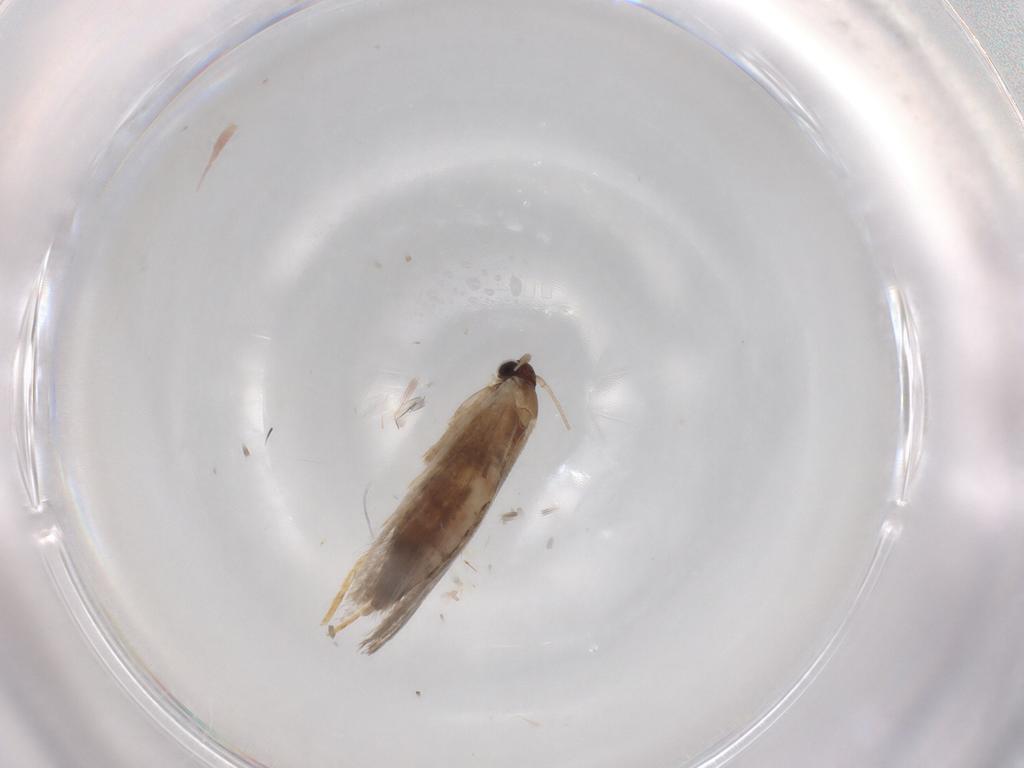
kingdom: Animalia
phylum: Arthropoda
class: Insecta
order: Lepidoptera
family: Tineidae
